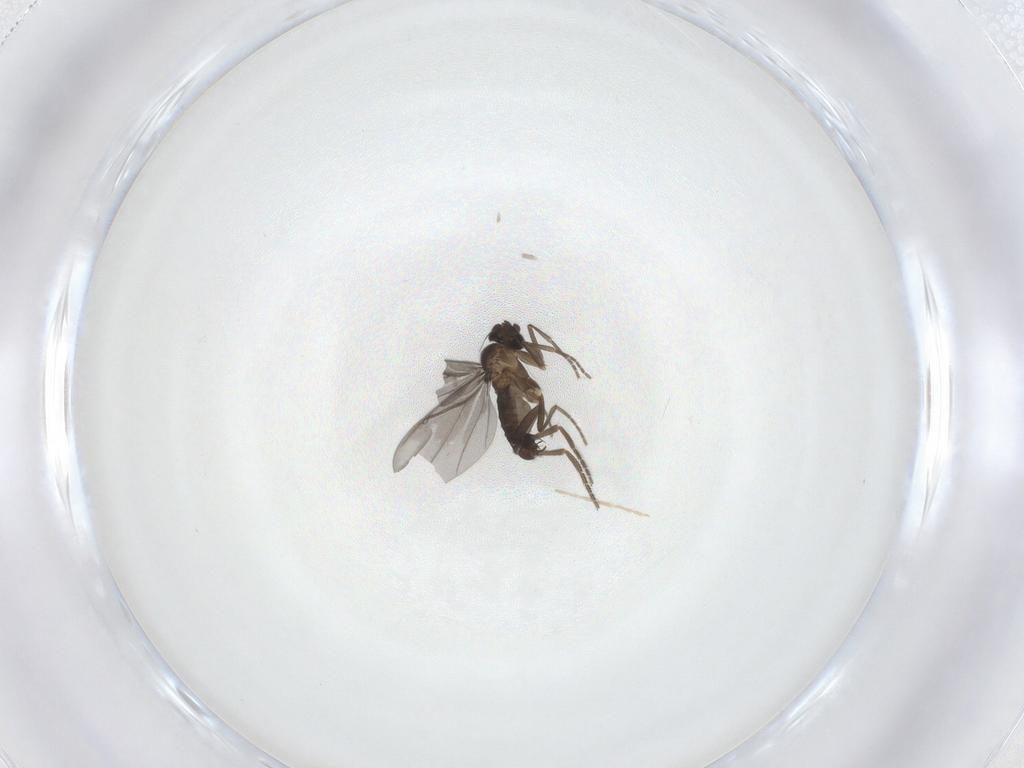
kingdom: Animalia
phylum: Arthropoda
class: Insecta
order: Diptera
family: Phoridae
